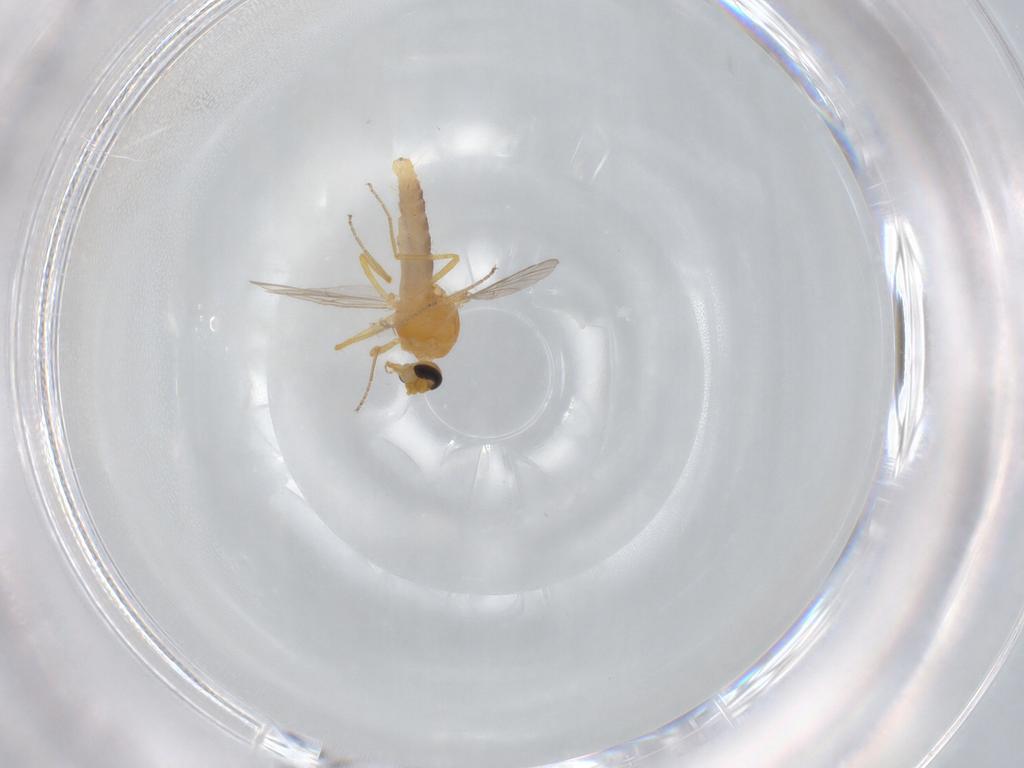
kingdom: Animalia
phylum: Arthropoda
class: Insecta
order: Diptera
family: Ceratopogonidae
